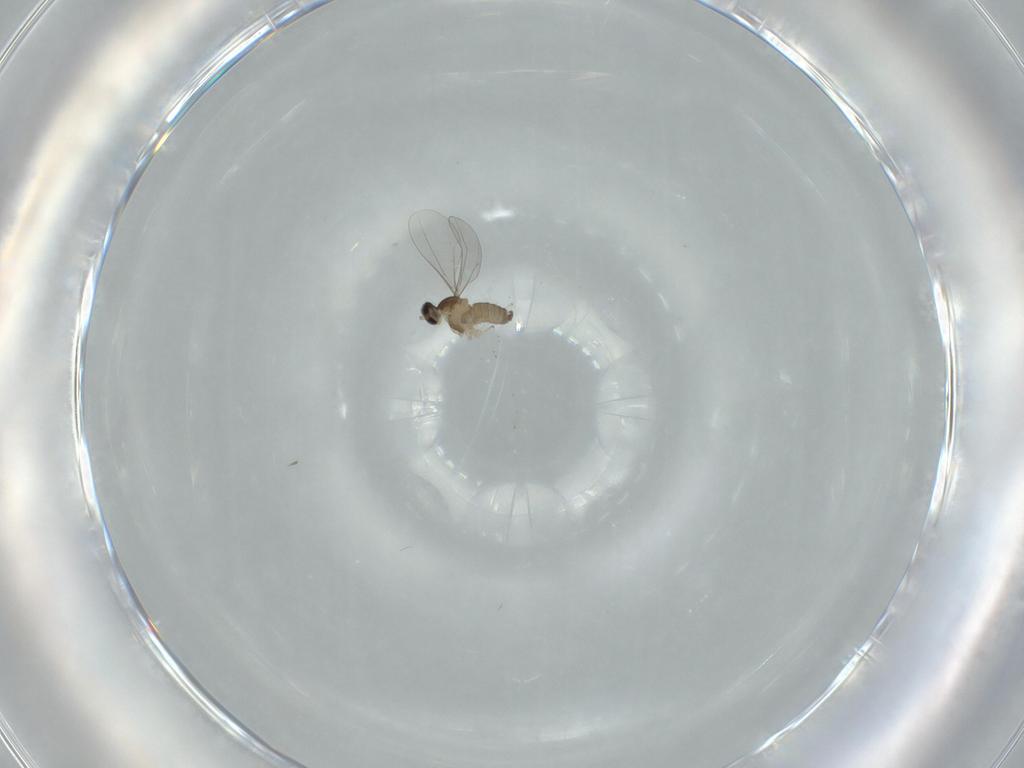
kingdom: Animalia
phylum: Arthropoda
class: Insecta
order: Diptera
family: Cecidomyiidae
